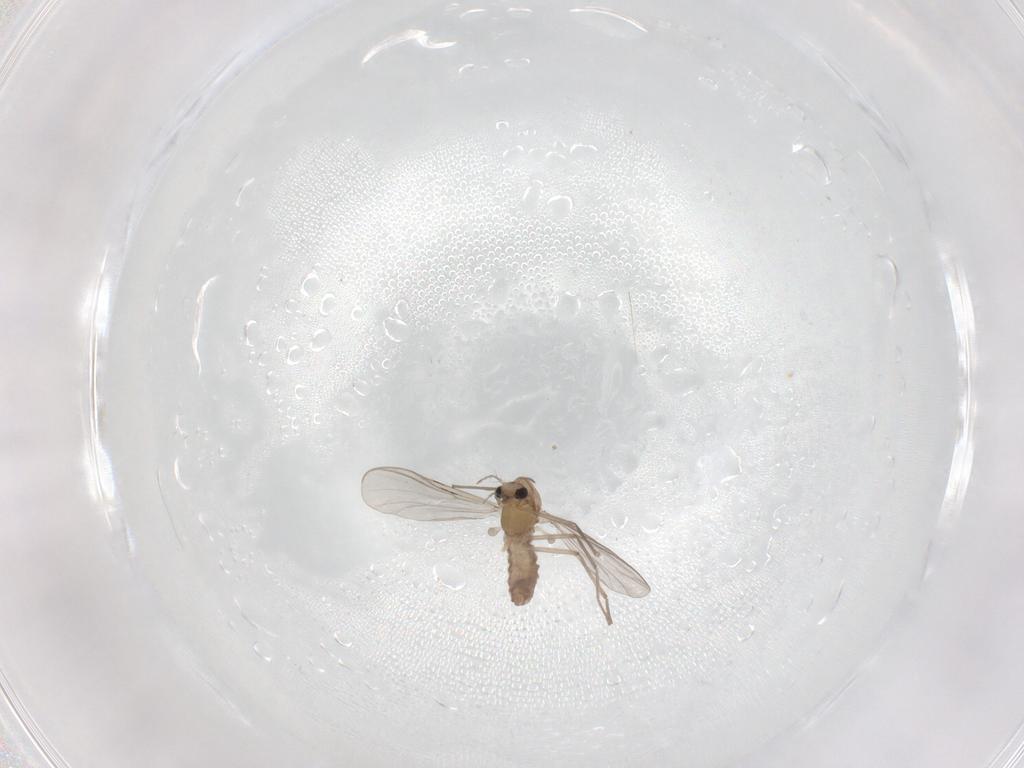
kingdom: Animalia
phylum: Arthropoda
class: Insecta
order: Diptera
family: Chironomidae
